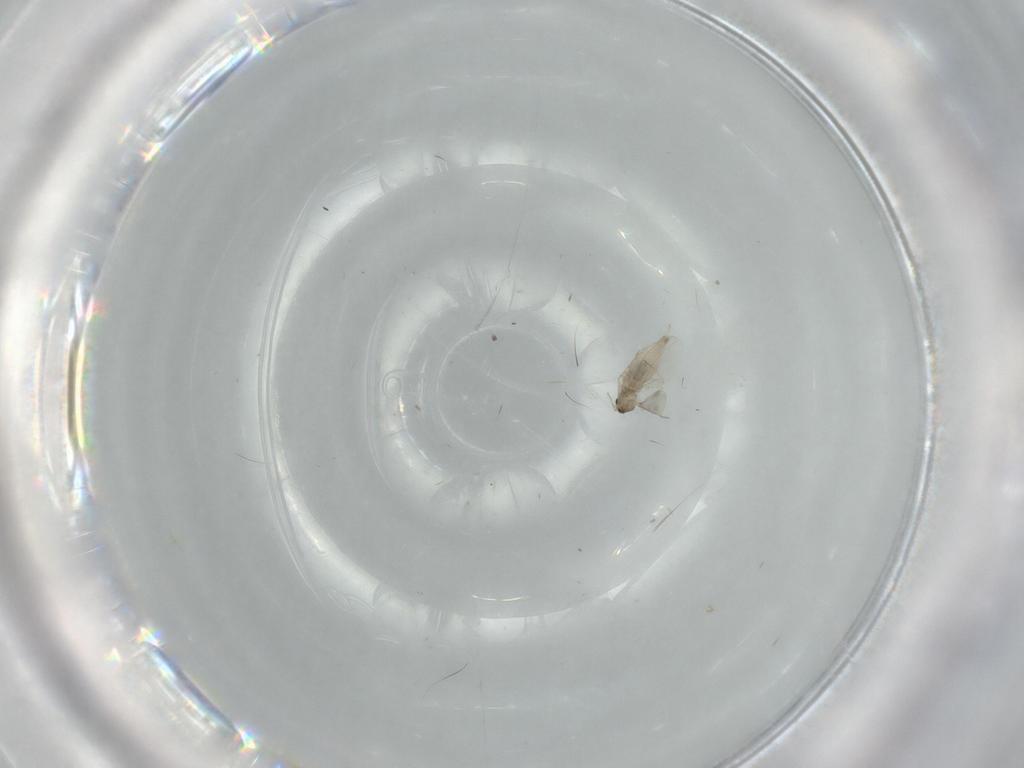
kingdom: Animalia
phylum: Arthropoda
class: Insecta
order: Diptera
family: Cecidomyiidae
